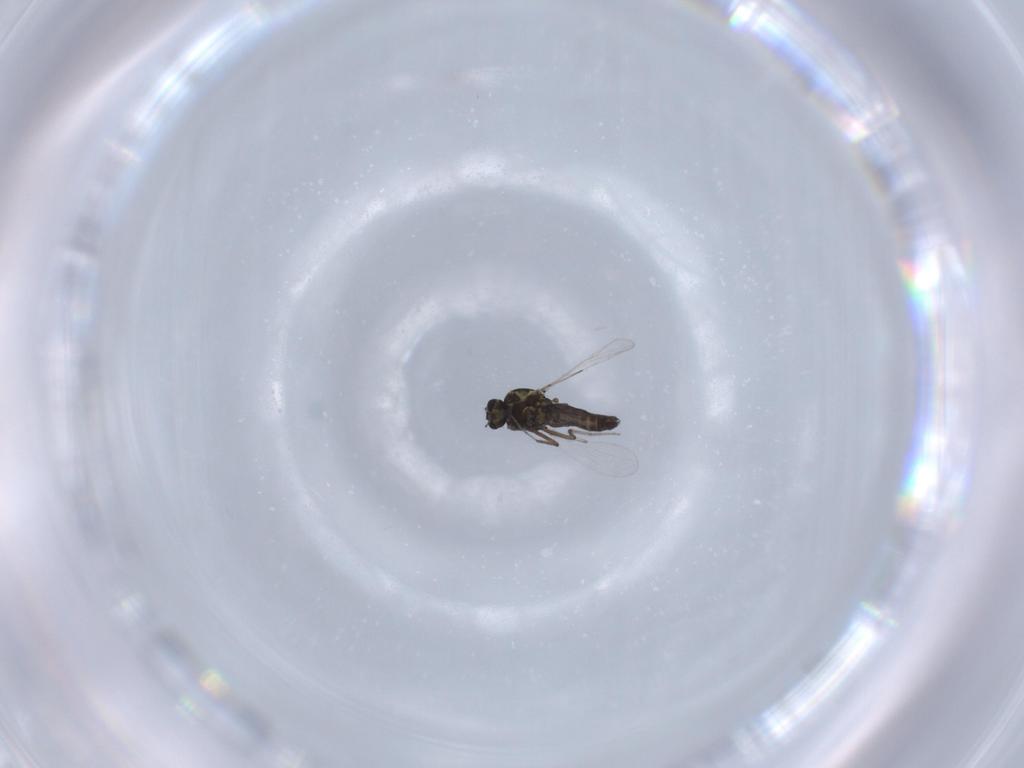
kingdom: Animalia
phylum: Arthropoda
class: Insecta
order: Diptera
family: Ceratopogonidae
